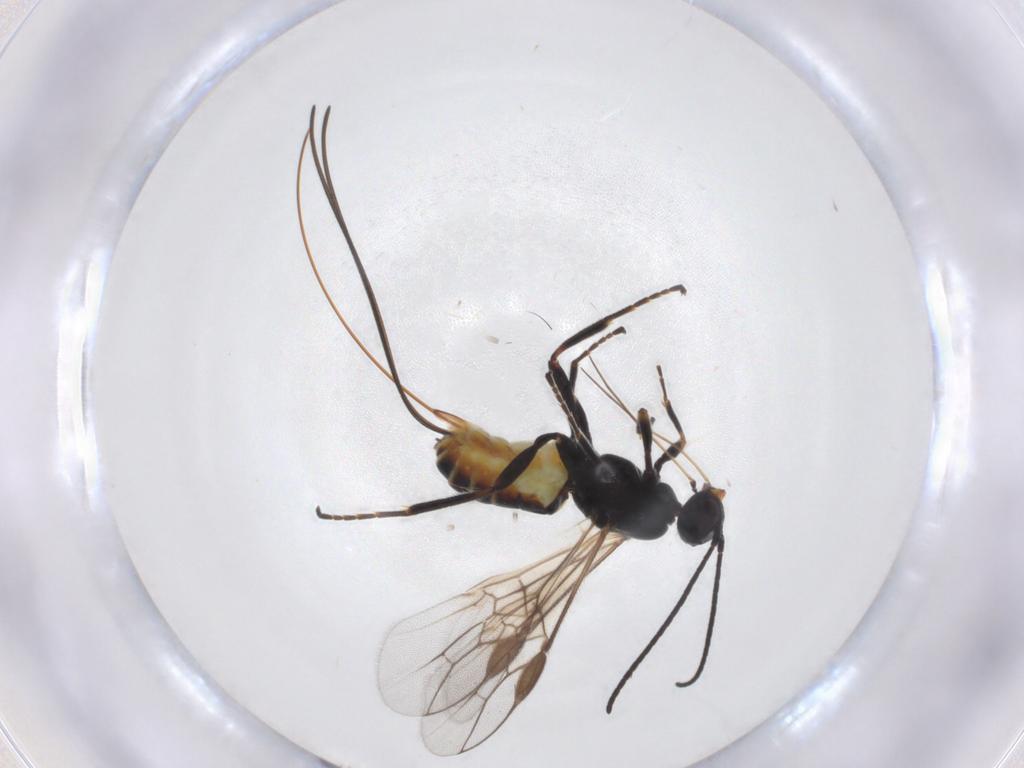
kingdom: Animalia
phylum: Arthropoda
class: Insecta
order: Hymenoptera
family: Braconidae
